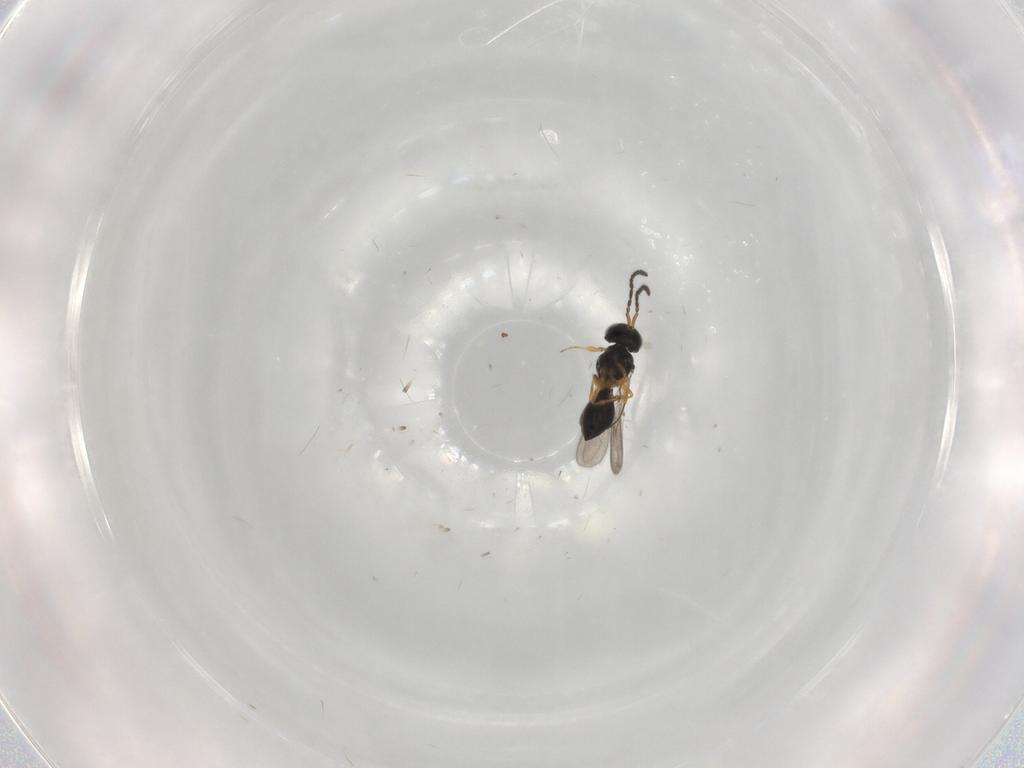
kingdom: Animalia
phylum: Arthropoda
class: Insecta
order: Hymenoptera
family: Scelionidae
